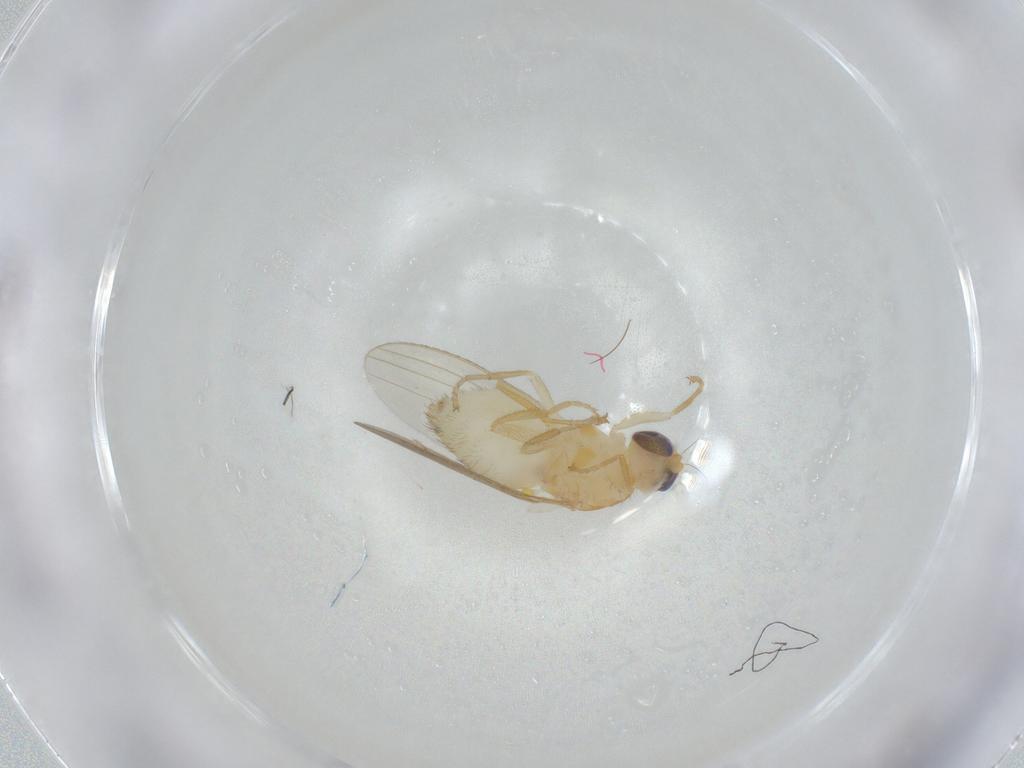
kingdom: Animalia
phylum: Arthropoda
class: Insecta
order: Diptera
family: Chyromyidae
